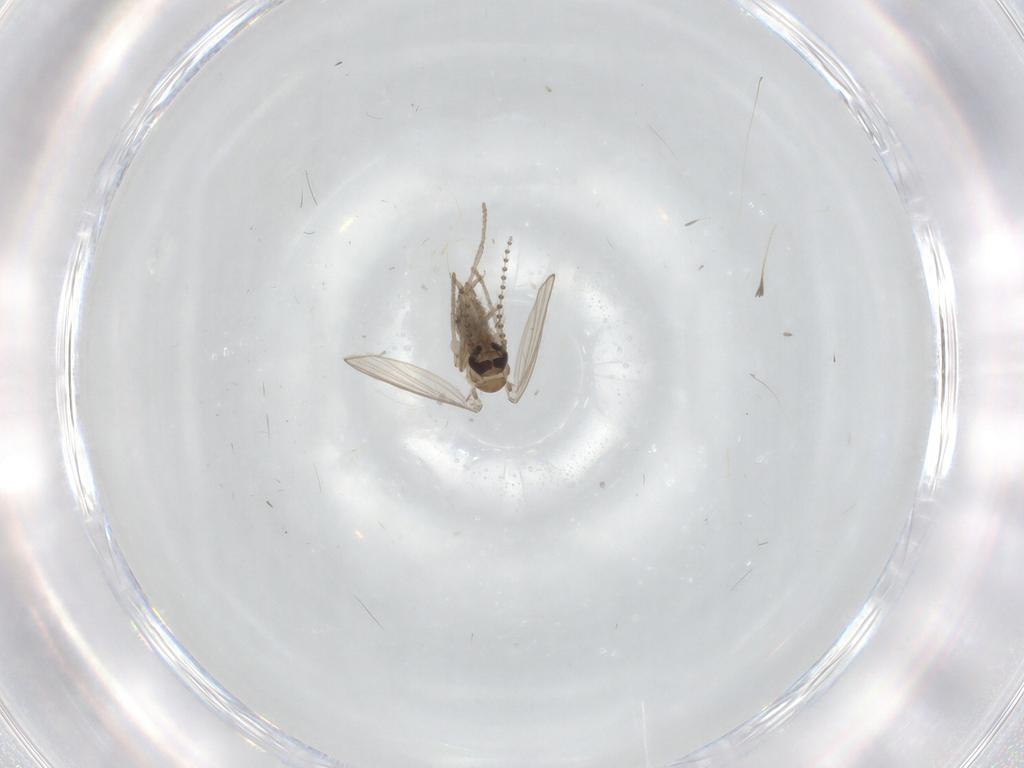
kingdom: Animalia
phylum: Arthropoda
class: Insecta
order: Diptera
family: Psychodidae
